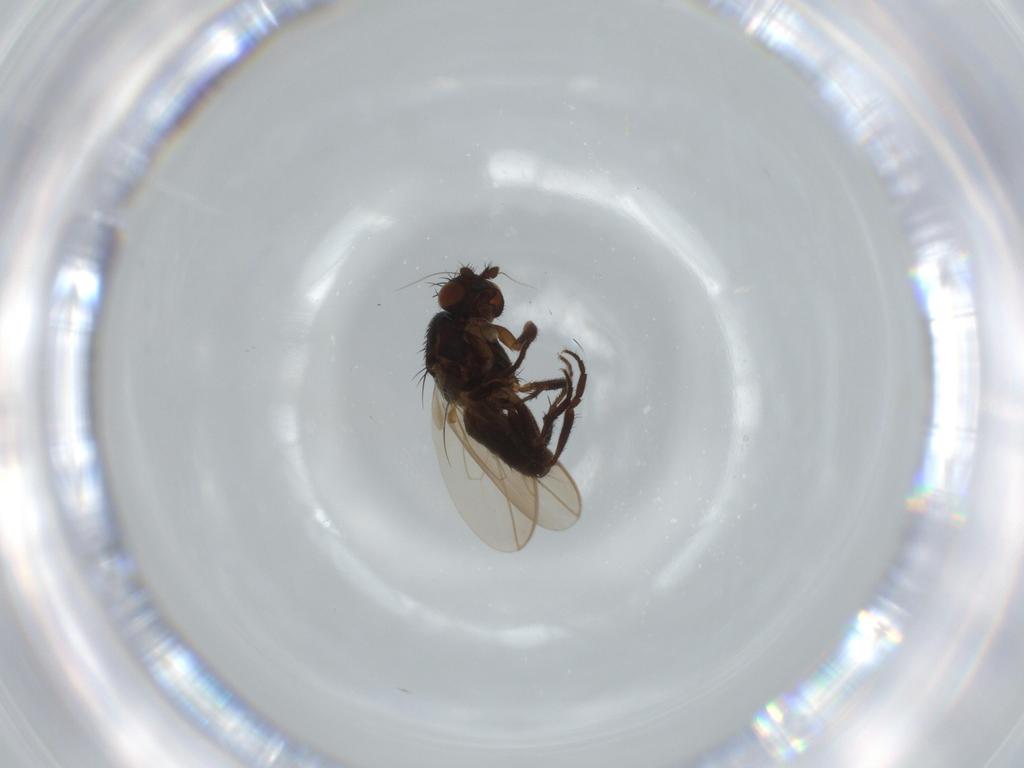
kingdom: Animalia
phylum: Arthropoda
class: Insecta
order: Diptera
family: Sphaeroceridae
